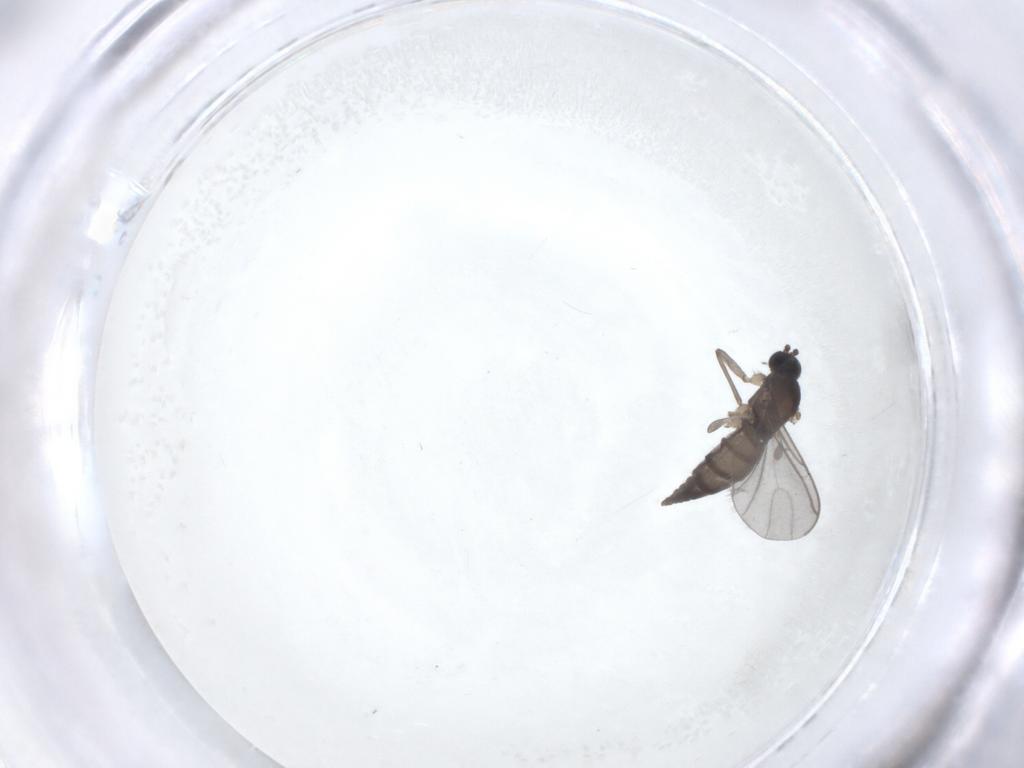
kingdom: Animalia
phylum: Arthropoda
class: Insecta
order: Diptera
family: Sciaridae
